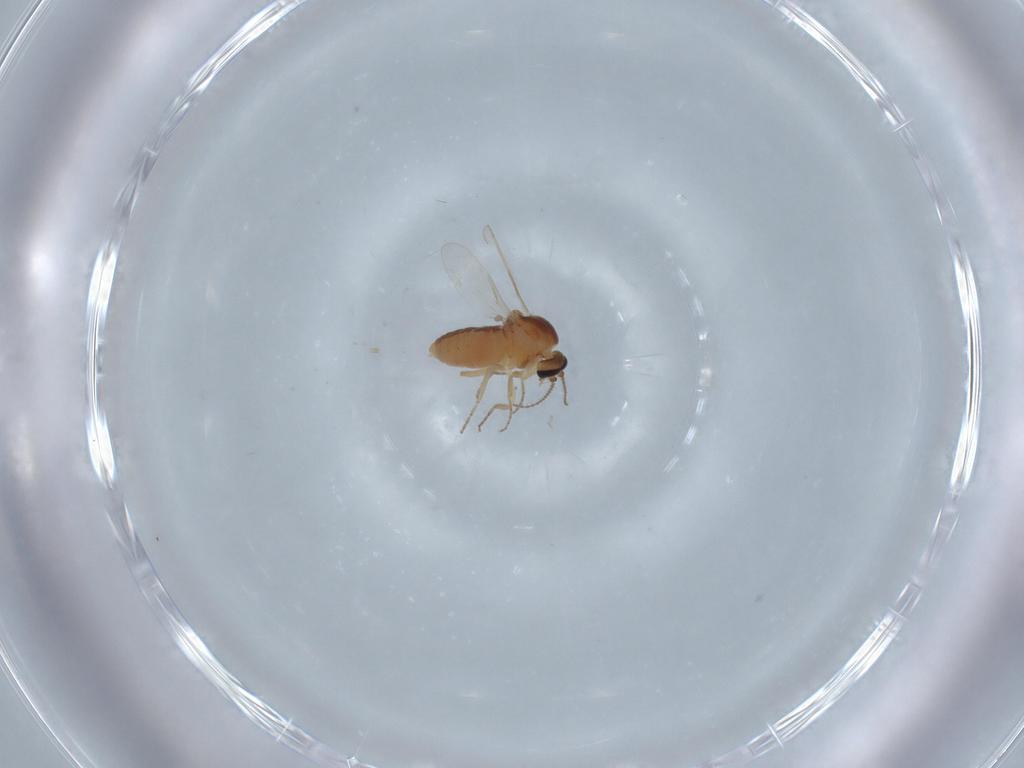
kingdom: Animalia
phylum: Arthropoda
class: Insecta
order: Diptera
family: Ceratopogonidae
